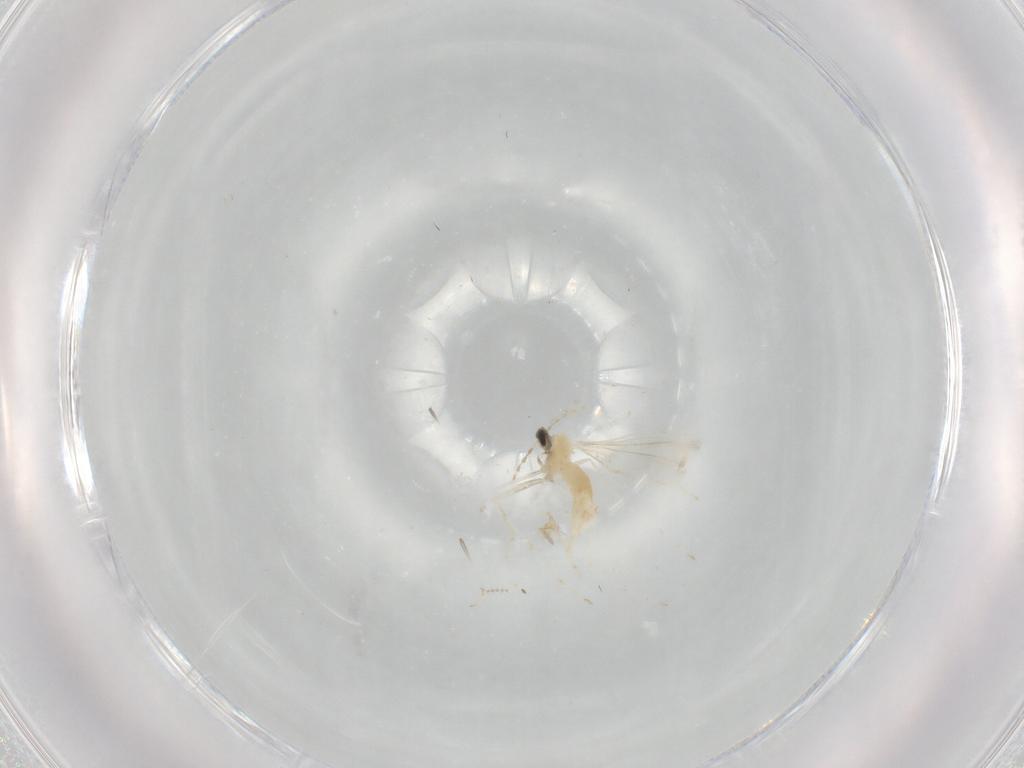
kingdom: Animalia
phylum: Arthropoda
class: Insecta
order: Diptera
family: Cecidomyiidae
